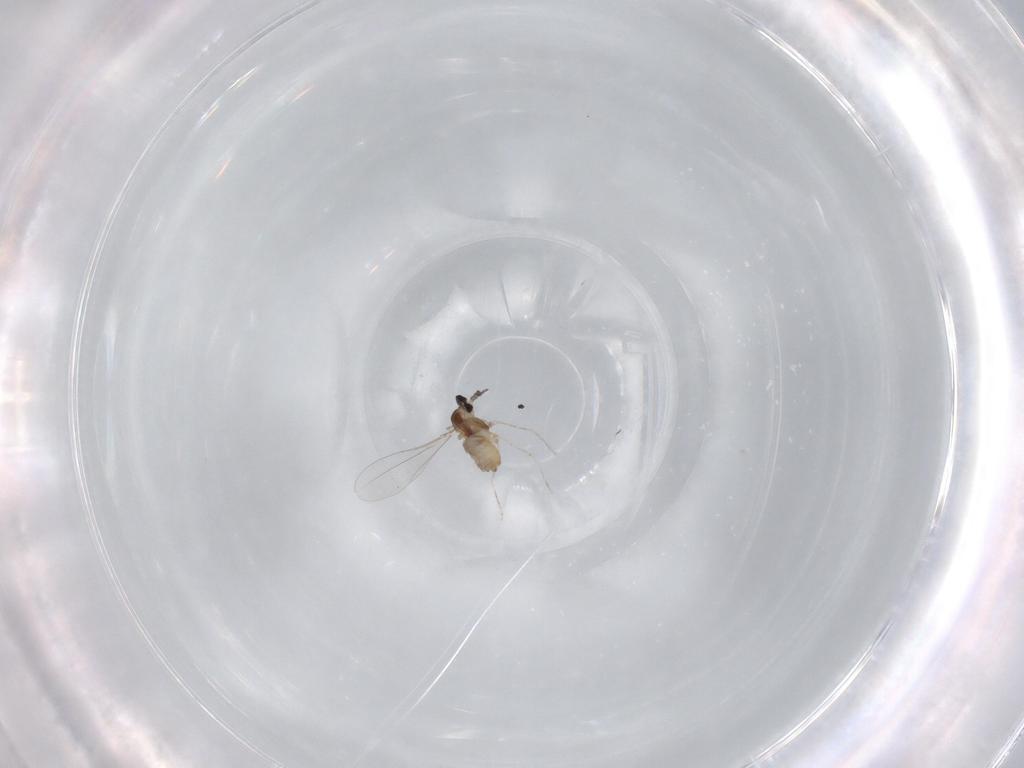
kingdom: Animalia
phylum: Arthropoda
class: Insecta
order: Diptera
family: Cecidomyiidae
